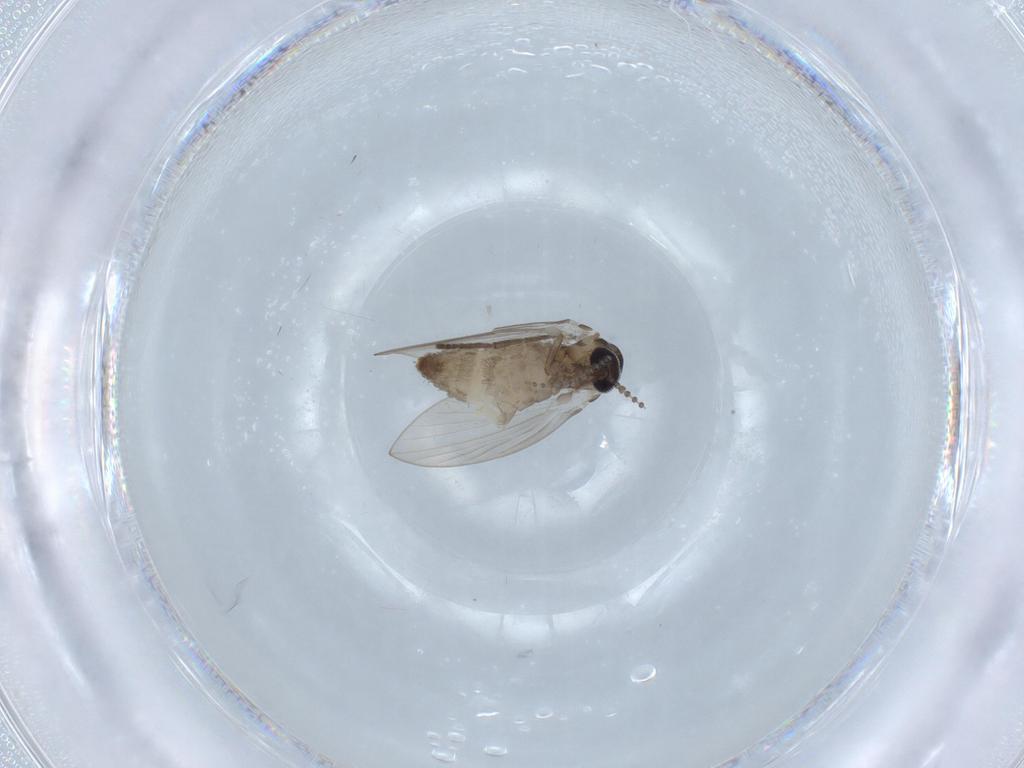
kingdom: Animalia
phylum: Arthropoda
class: Insecta
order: Diptera
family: Psychodidae
